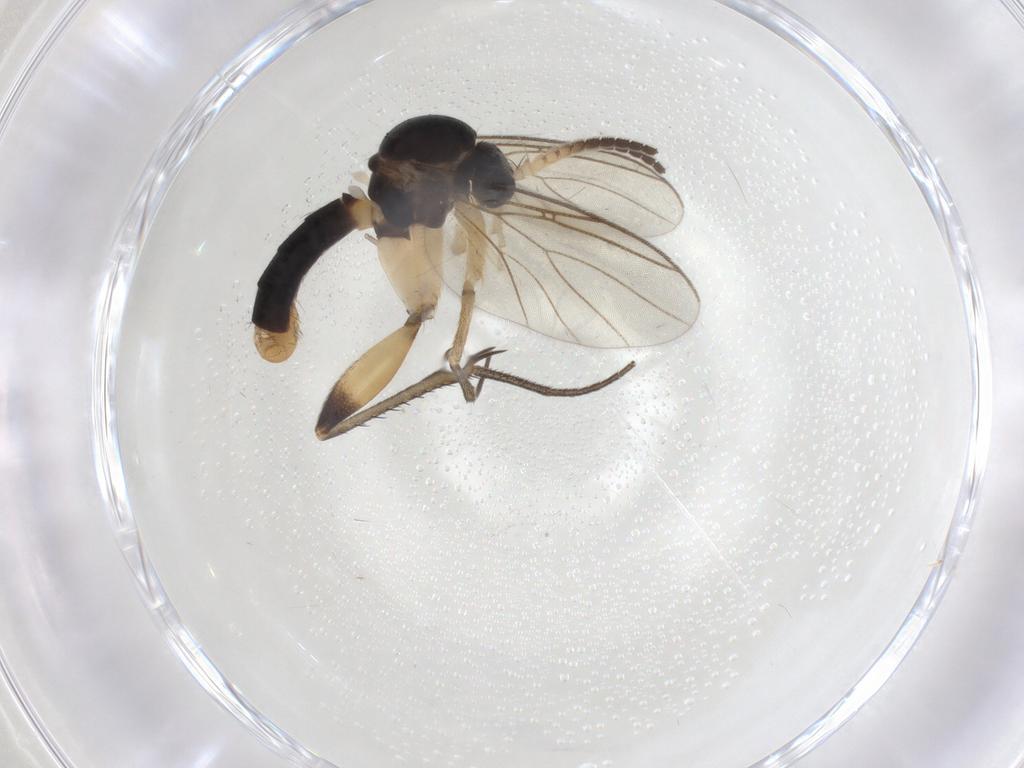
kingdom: Animalia
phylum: Arthropoda
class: Insecta
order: Diptera
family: Mycetophilidae
